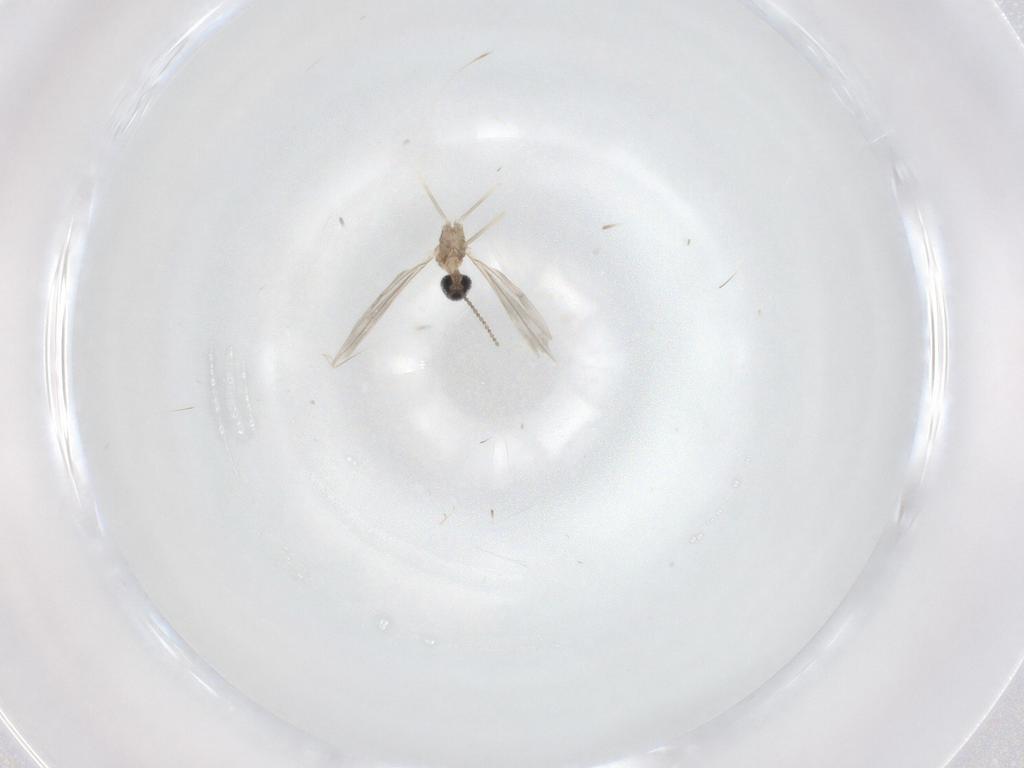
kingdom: Animalia
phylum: Arthropoda
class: Insecta
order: Diptera
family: Cecidomyiidae
